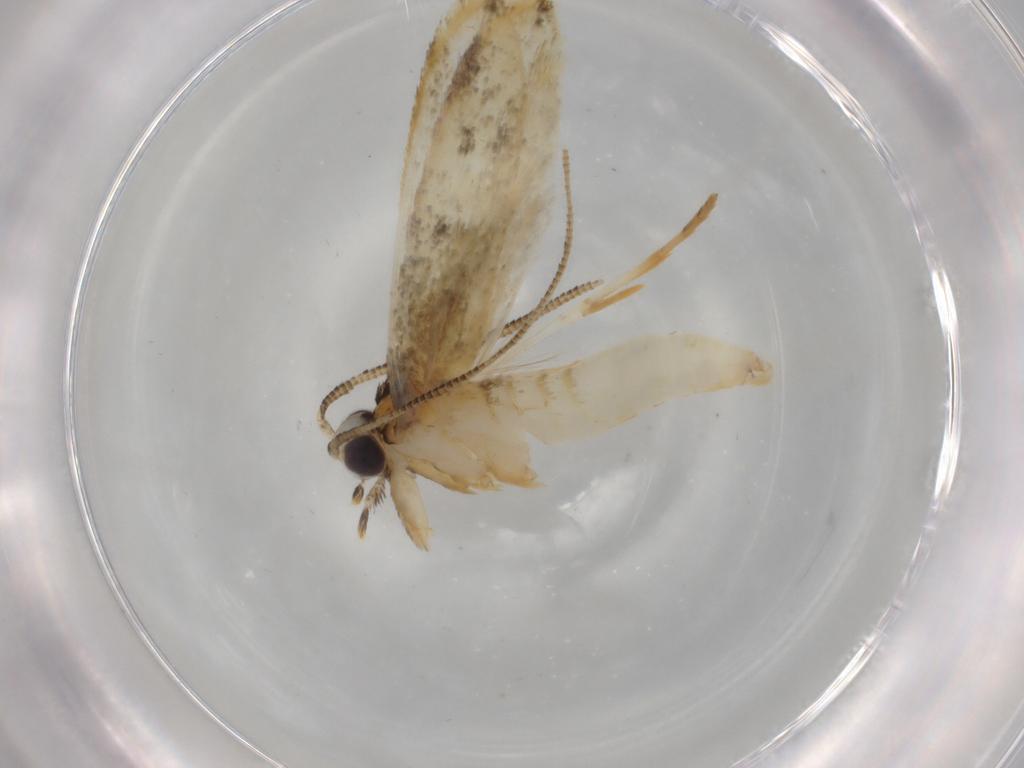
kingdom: Animalia
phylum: Arthropoda
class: Insecta
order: Lepidoptera
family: Tineidae
